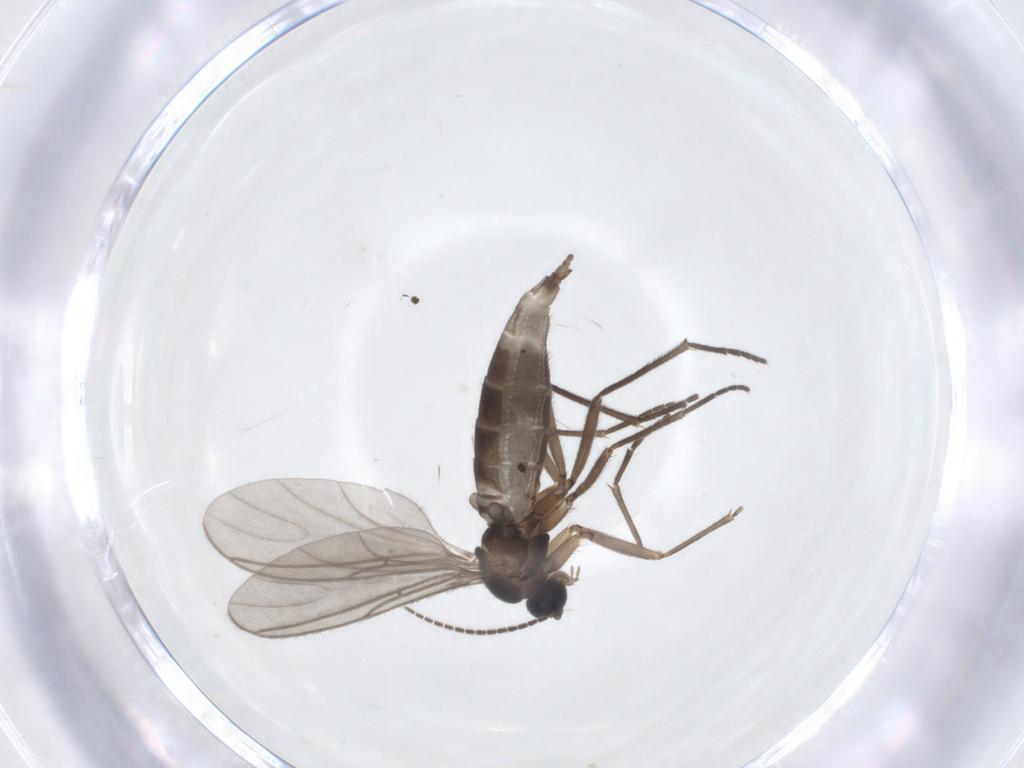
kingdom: Animalia
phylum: Arthropoda
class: Insecta
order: Diptera
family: Sciaridae
